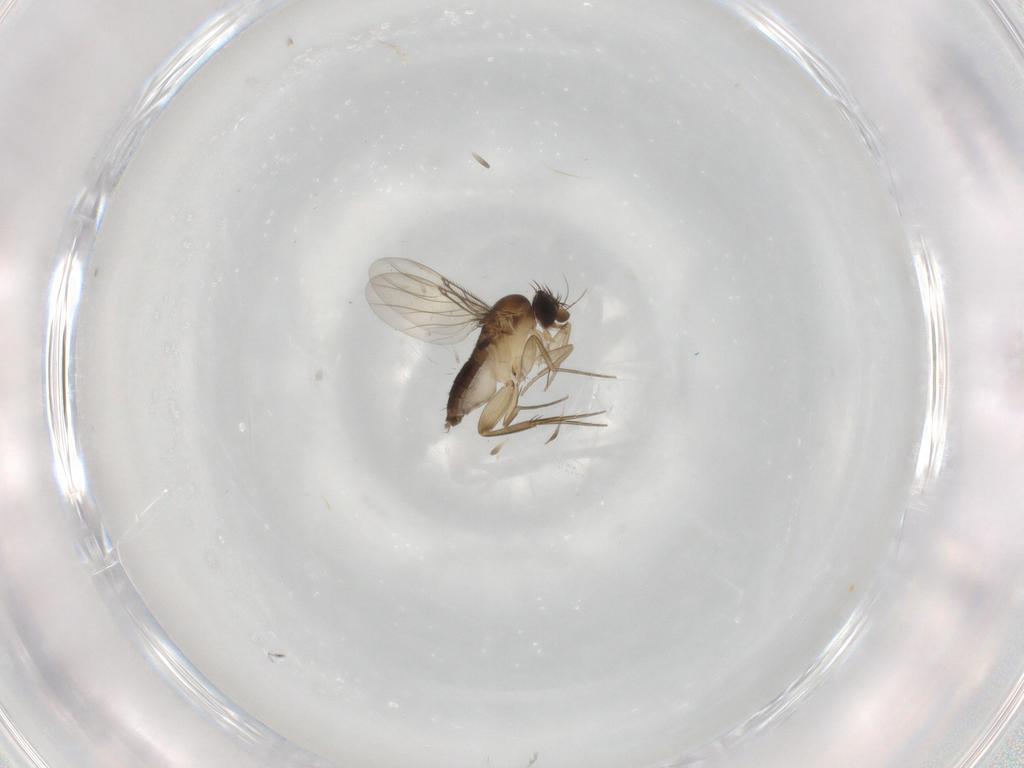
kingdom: Animalia
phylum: Arthropoda
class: Insecta
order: Diptera
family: Phoridae
